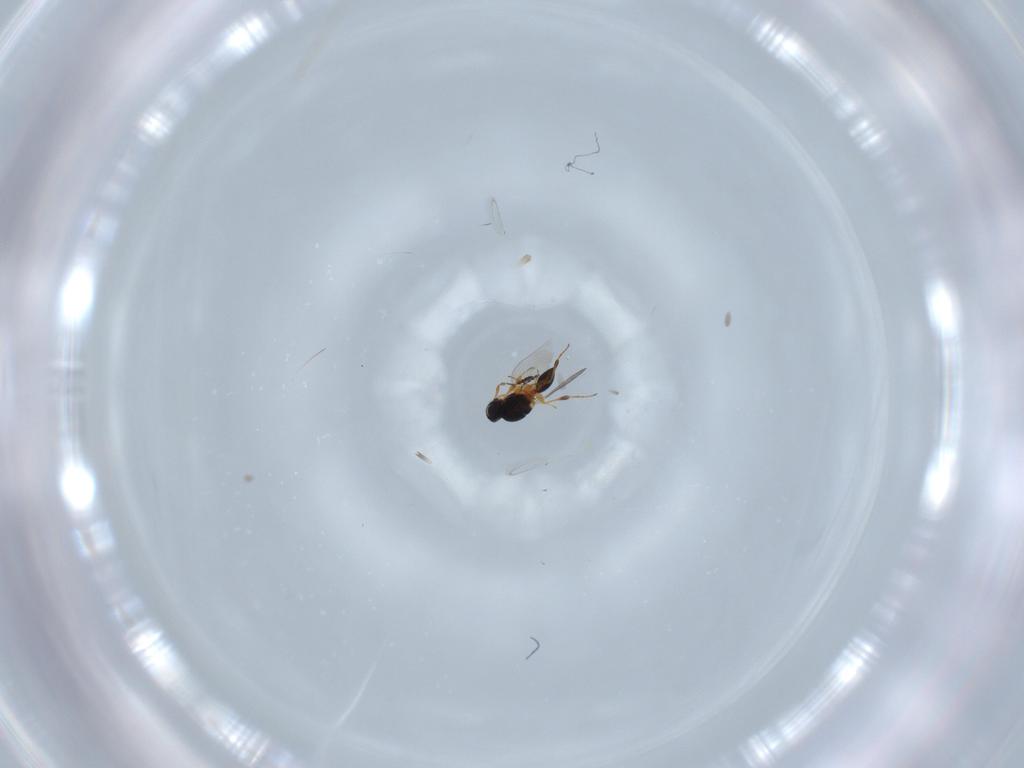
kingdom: Animalia
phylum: Arthropoda
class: Insecta
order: Hymenoptera
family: Platygastridae
